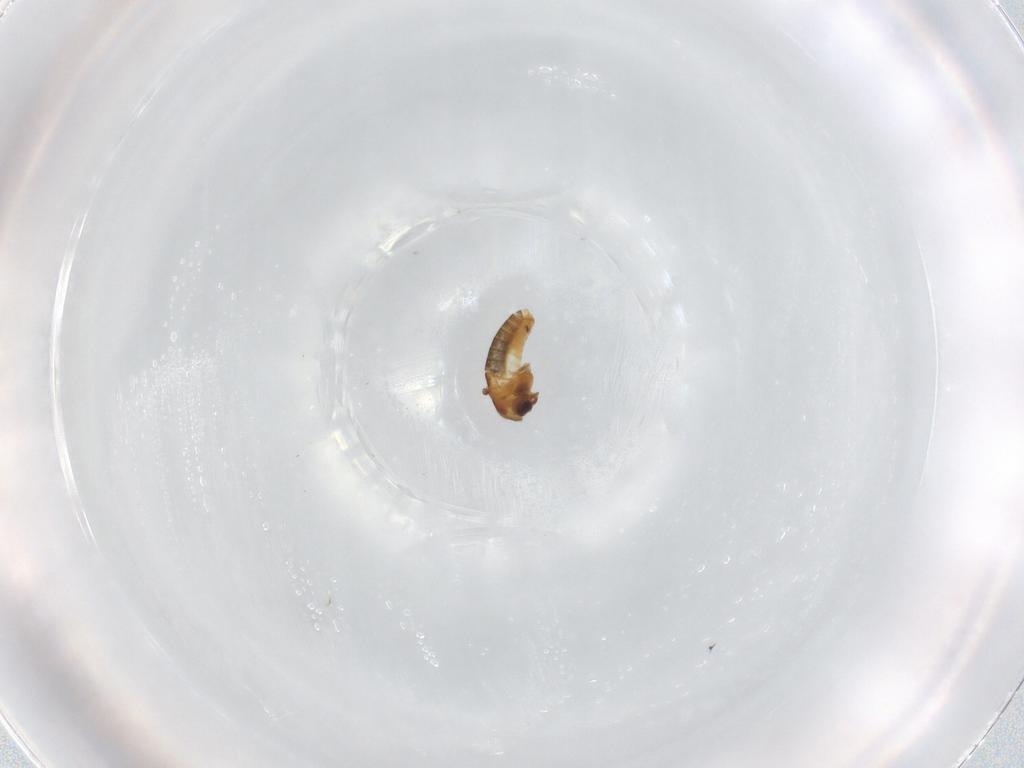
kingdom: Animalia
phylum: Arthropoda
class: Insecta
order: Diptera
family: Chironomidae
